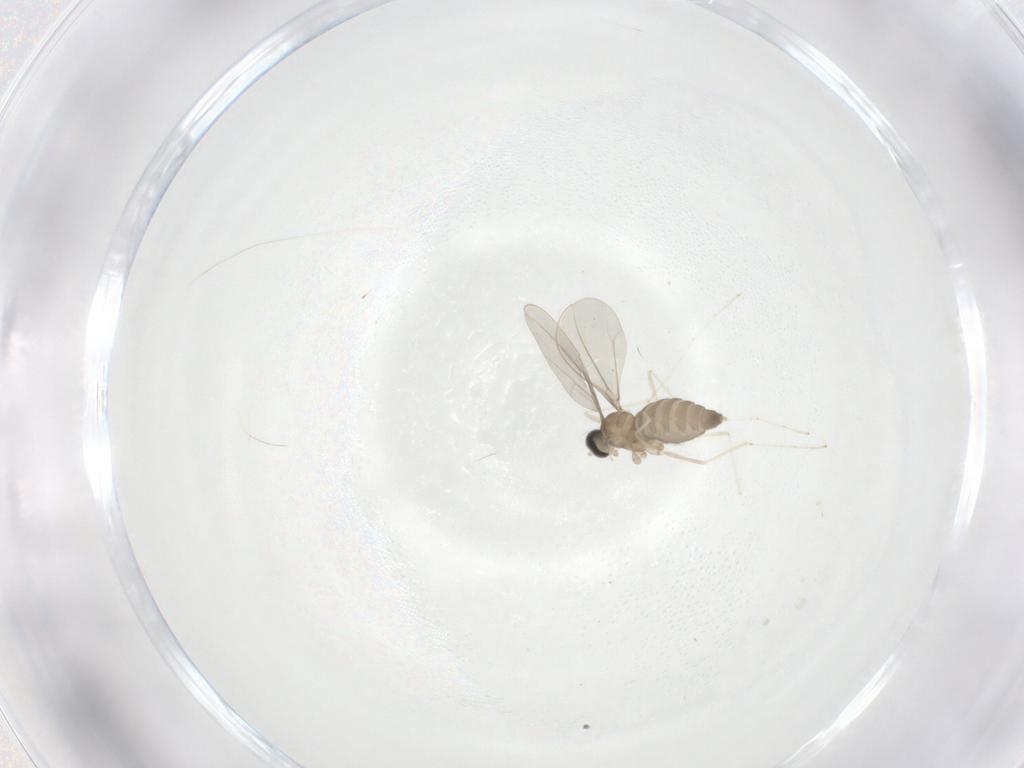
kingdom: Animalia
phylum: Arthropoda
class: Insecta
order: Diptera
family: Cecidomyiidae
